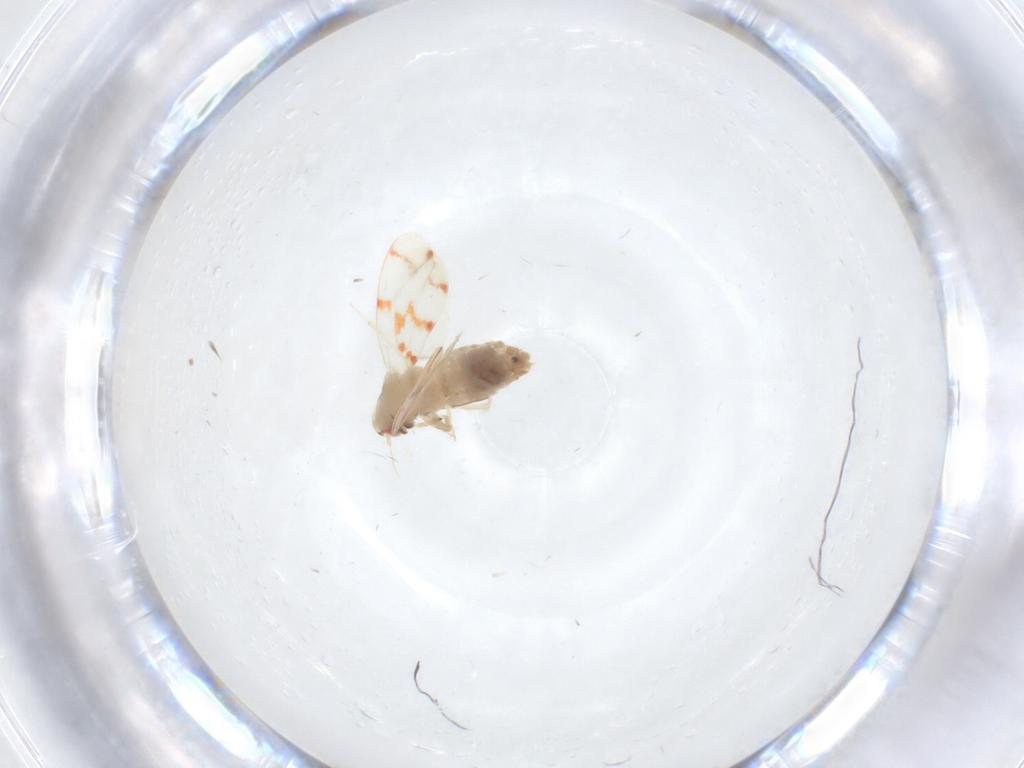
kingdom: Animalia
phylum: Arthropoda
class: Insecta
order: Hemiptera
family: Aleyrodidae
